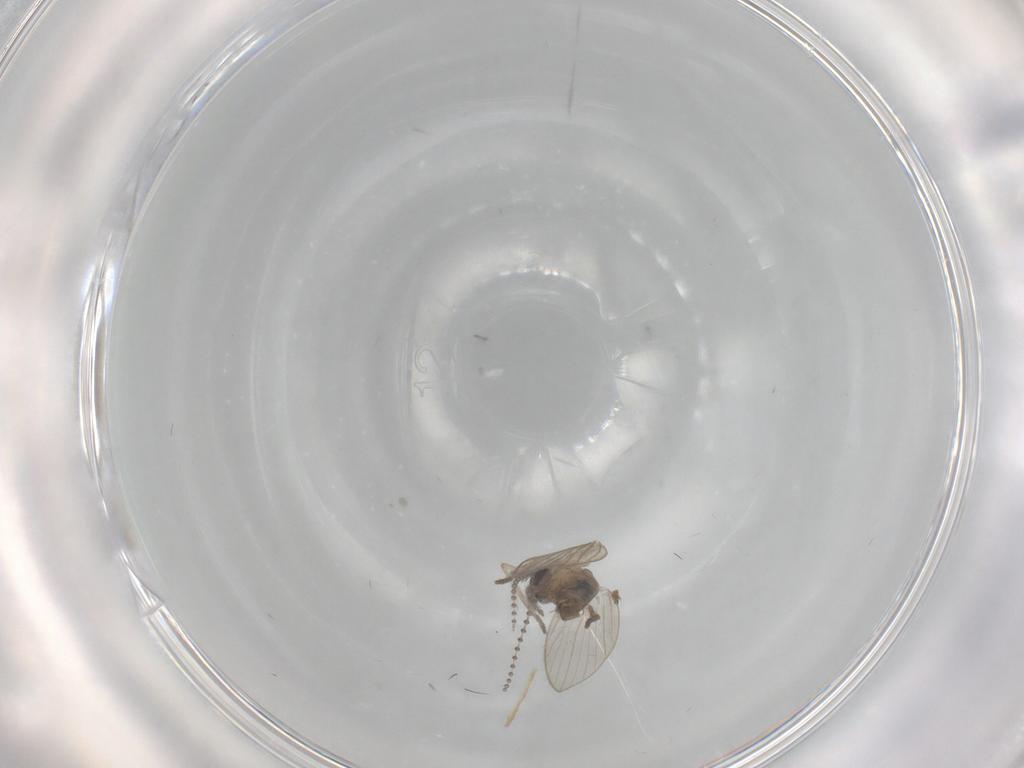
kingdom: Animalia
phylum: Arthropoda
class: Insecta
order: Diptera
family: Psychodidae
